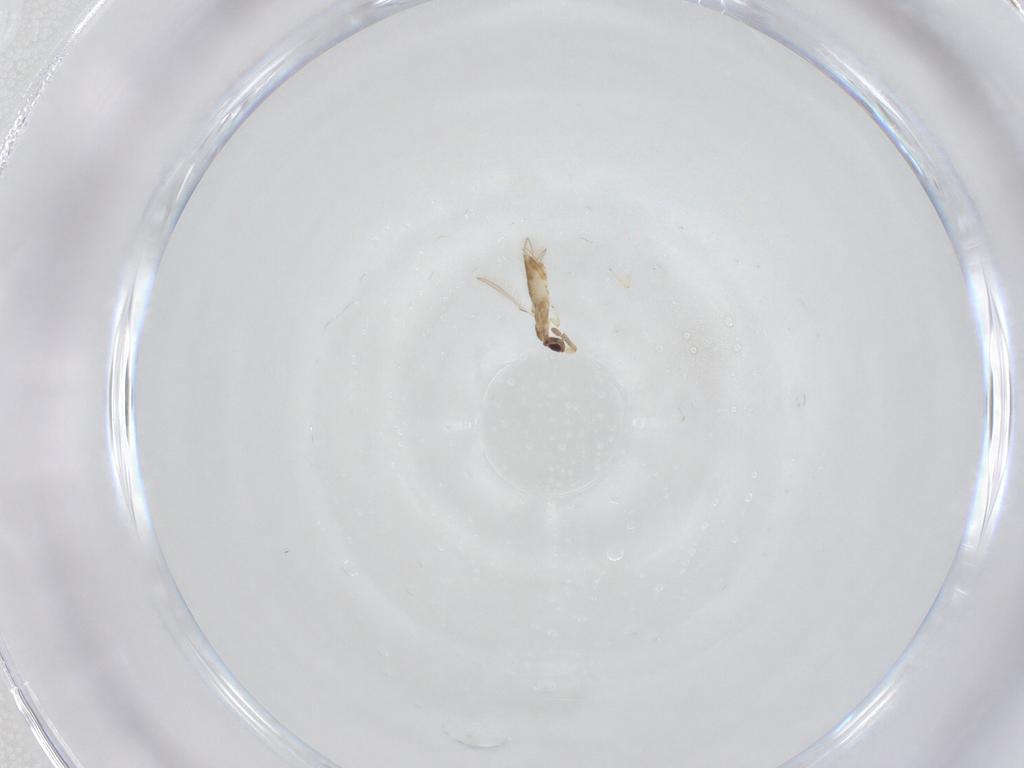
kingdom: Animalia
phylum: Arthropoda
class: Insecta
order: Hymenoptera
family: Mymaridae
